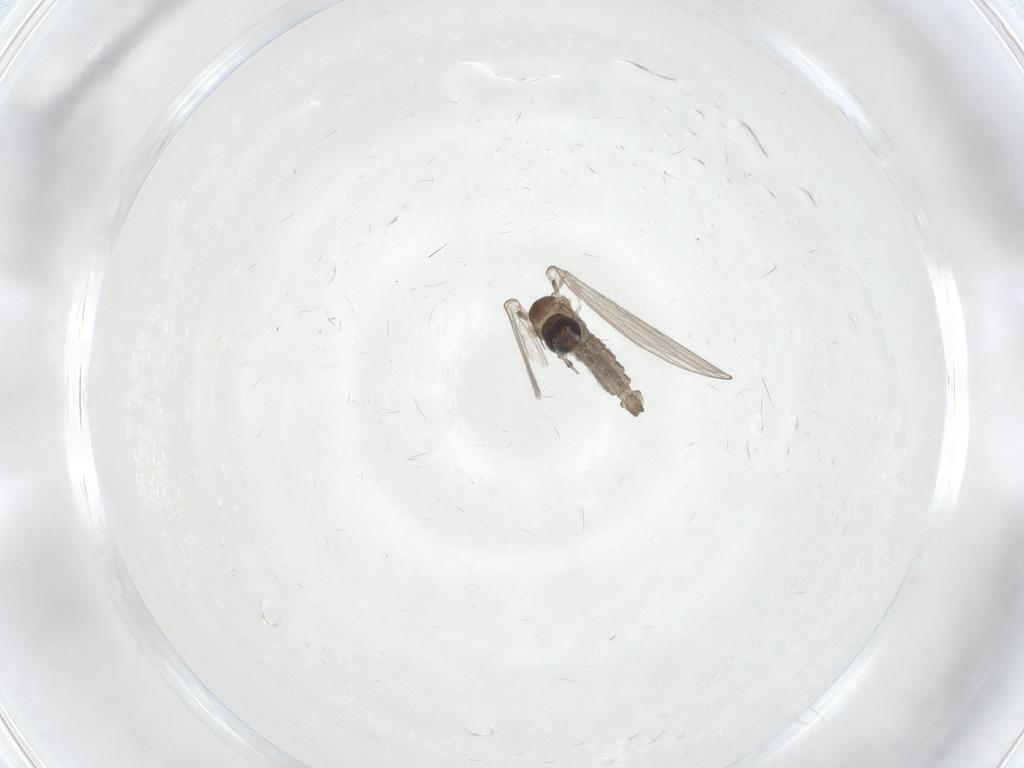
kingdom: Animalia
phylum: Arthropoda
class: Insecta
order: Diptera
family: Psychodidae
